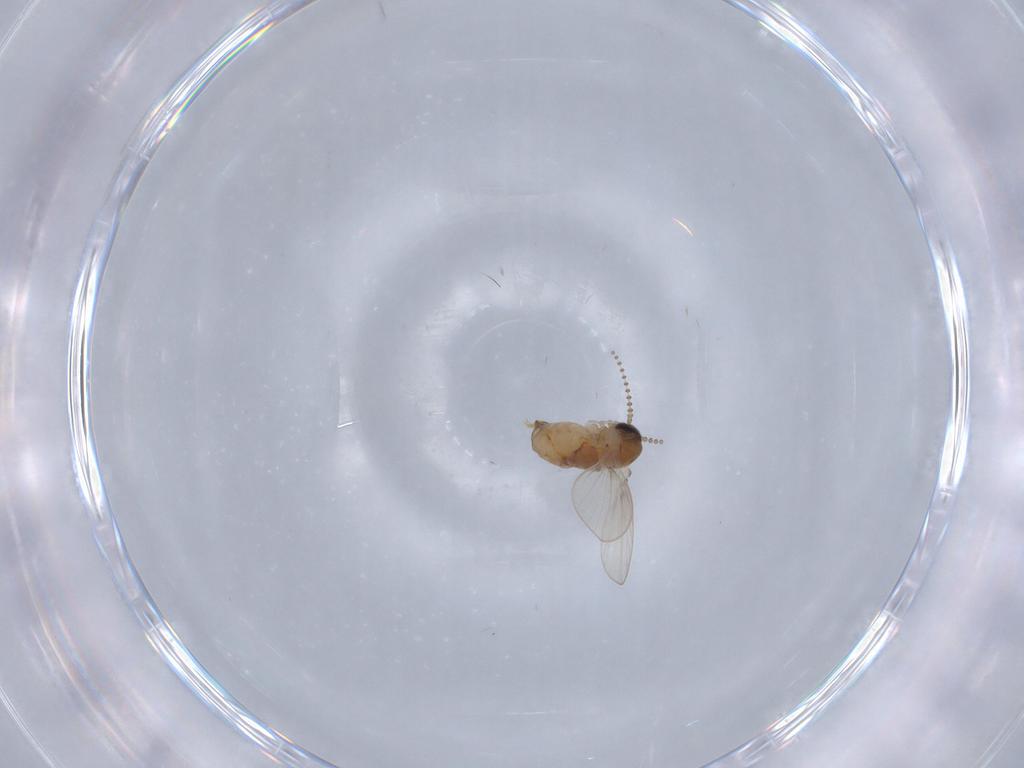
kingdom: Animalia
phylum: Arthropoda
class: Insecta
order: Diptera
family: Psychodidae
